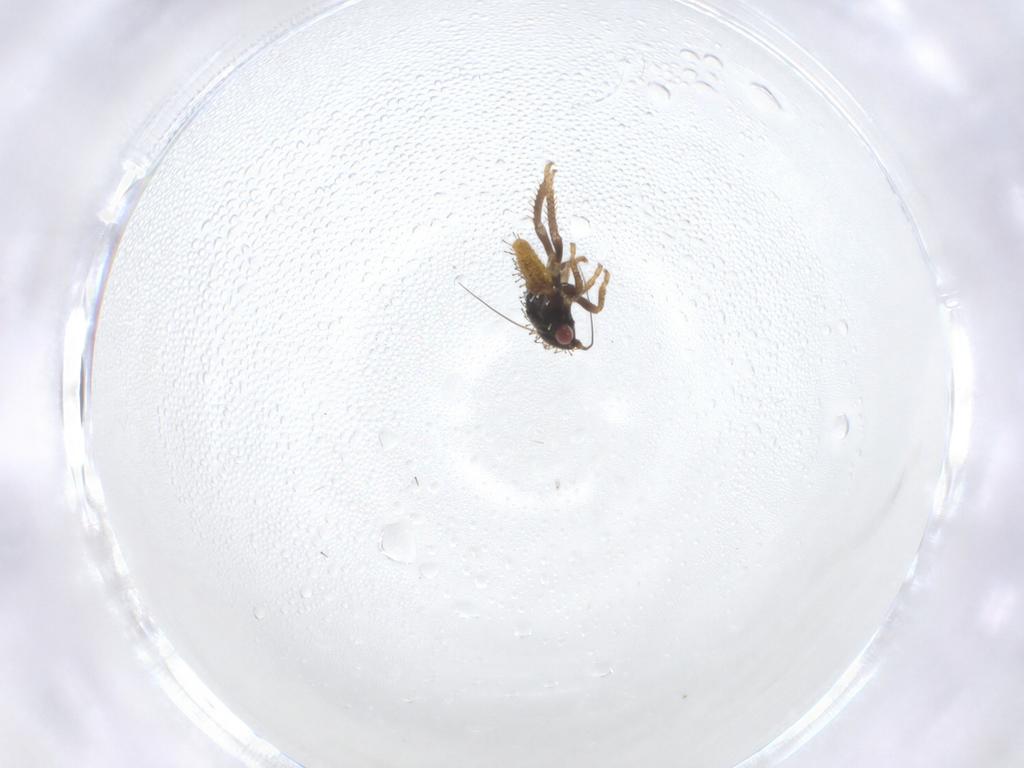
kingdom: Animalia
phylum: Arthropoda
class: Insecta
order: Hemiptera
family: Cicadellidae
